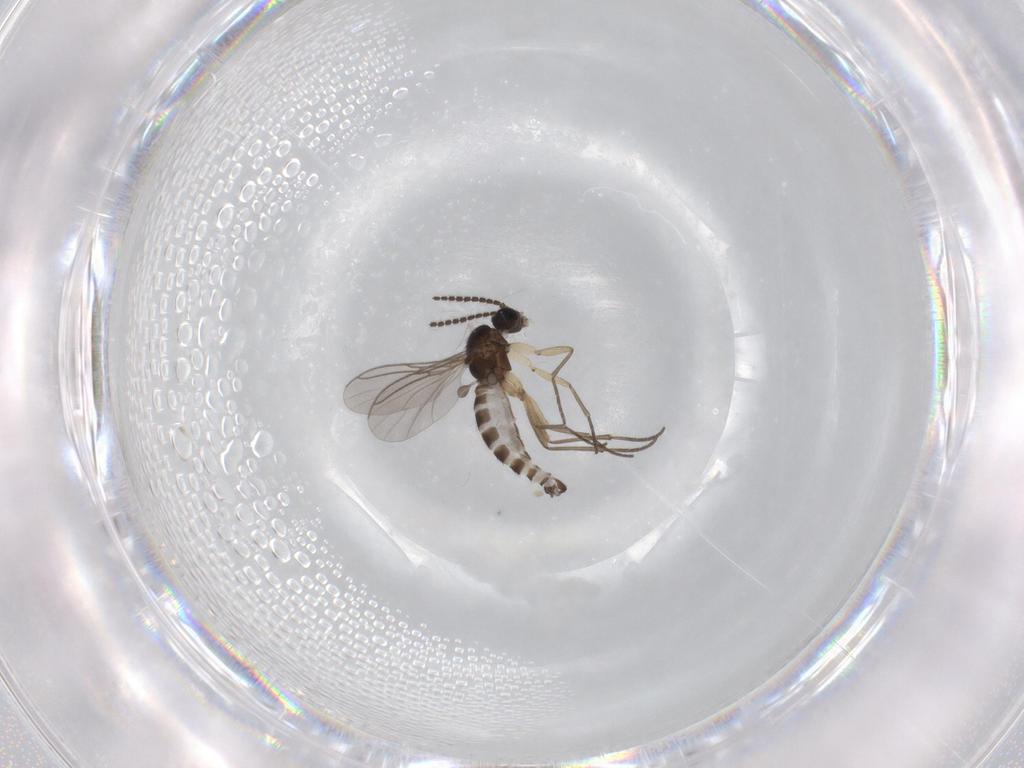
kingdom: Animalia
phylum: Arthropoda
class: Insecta
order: Diptera
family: Sciaridae
